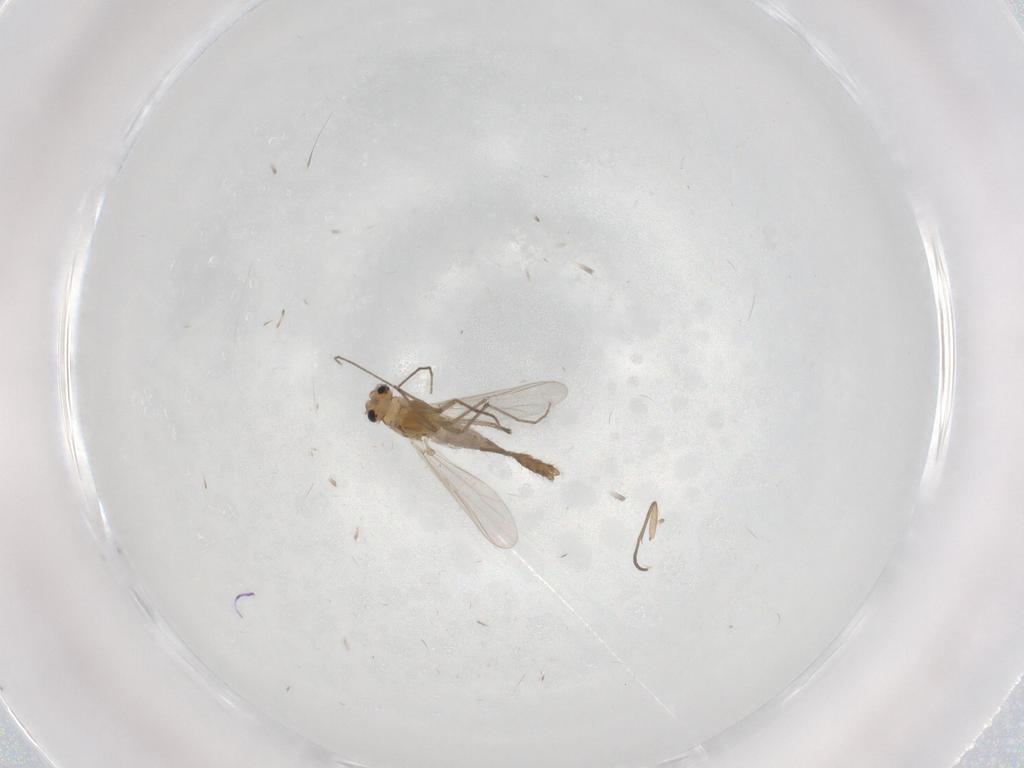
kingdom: Animalia
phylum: Arthropoda
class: Insecta
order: Diptera
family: Chironomidae
